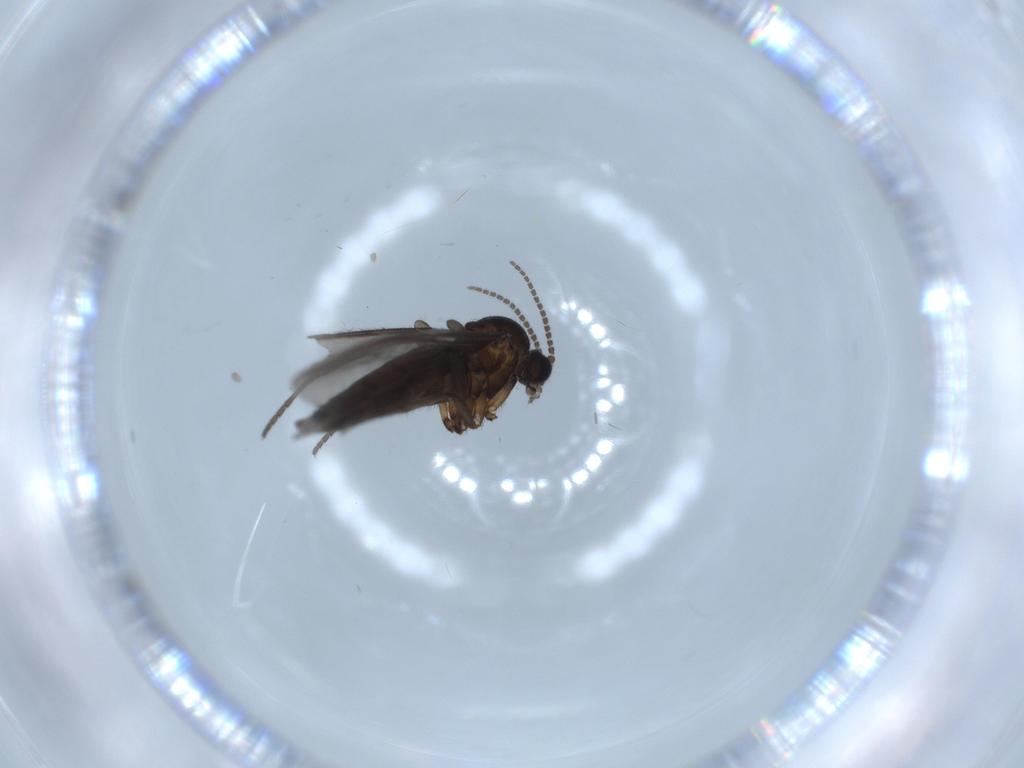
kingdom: Animalia
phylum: Arthropoda
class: Insecta
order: Diptera
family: Sciaridae
